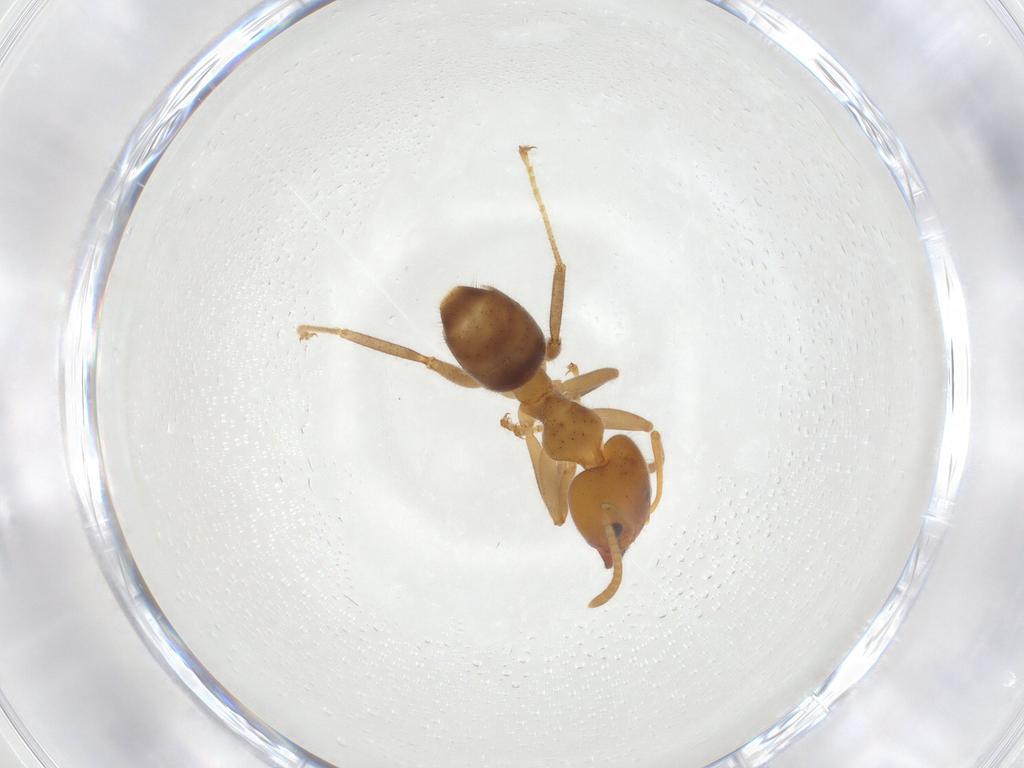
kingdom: Animalia
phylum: Arthropoda
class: Insecta
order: Hymenoptera
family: Formicidae
